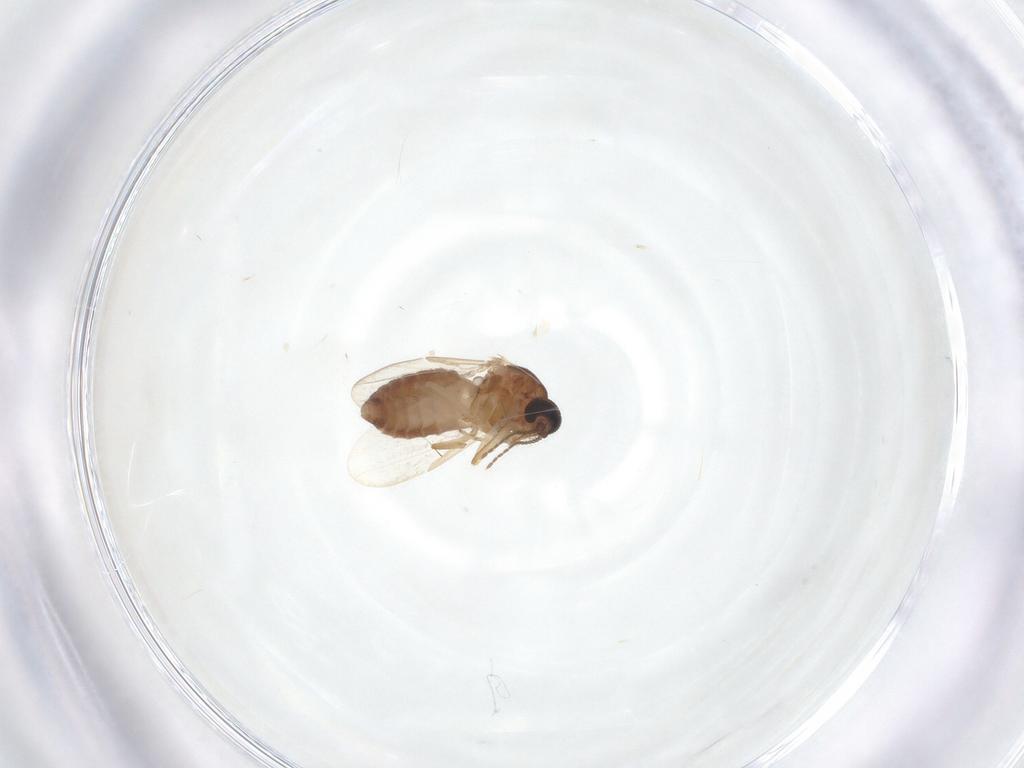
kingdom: Animalia
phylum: Arthropoda
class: Insecta
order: Diptera
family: Ceratopogonidae
